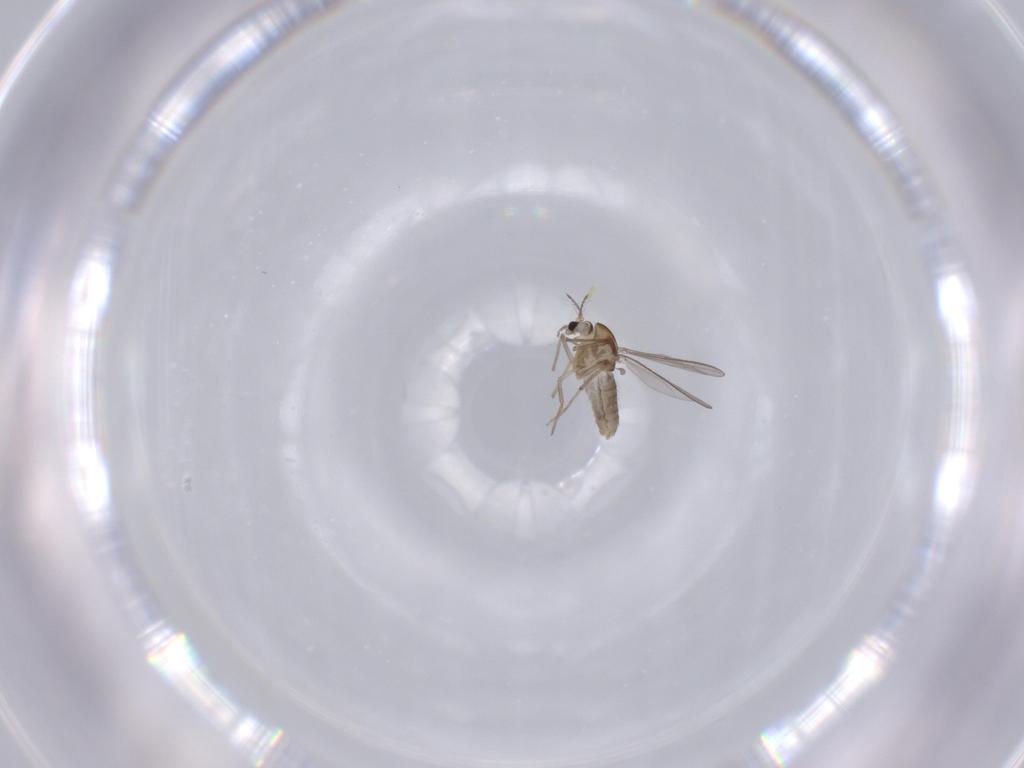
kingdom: Animalia
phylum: Arthropoda
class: Insecta
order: Diptera
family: Chironomidae
